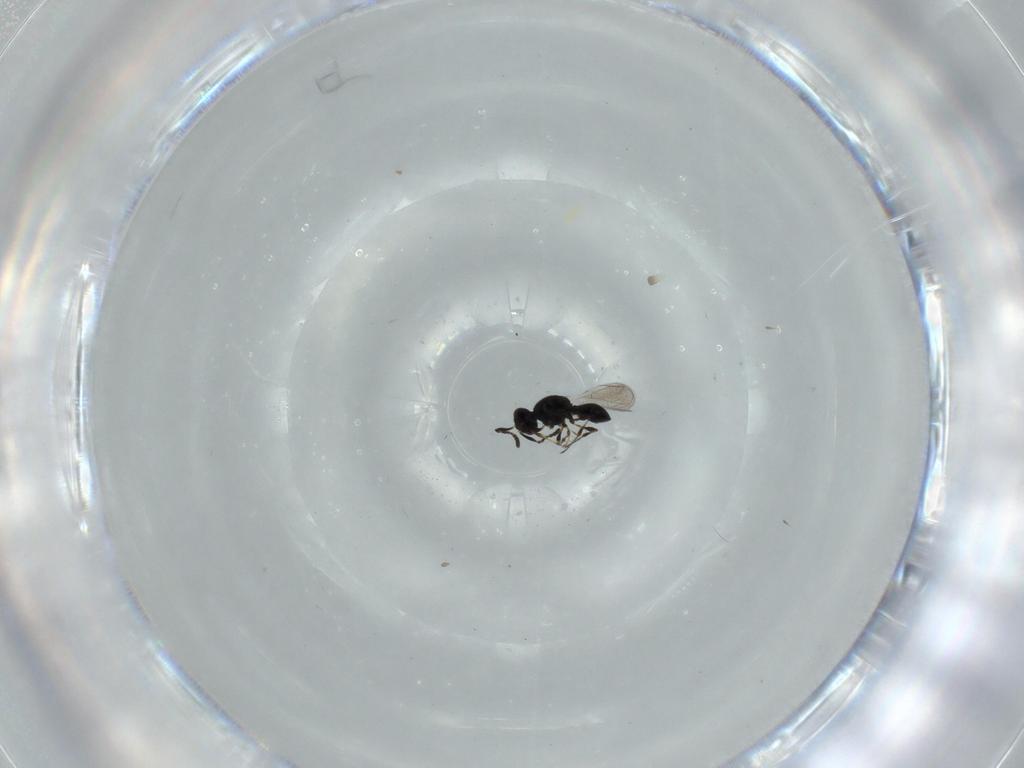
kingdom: Animalia
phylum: Arthropoda
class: Insecta
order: Hymenoptera
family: Platygastridae
